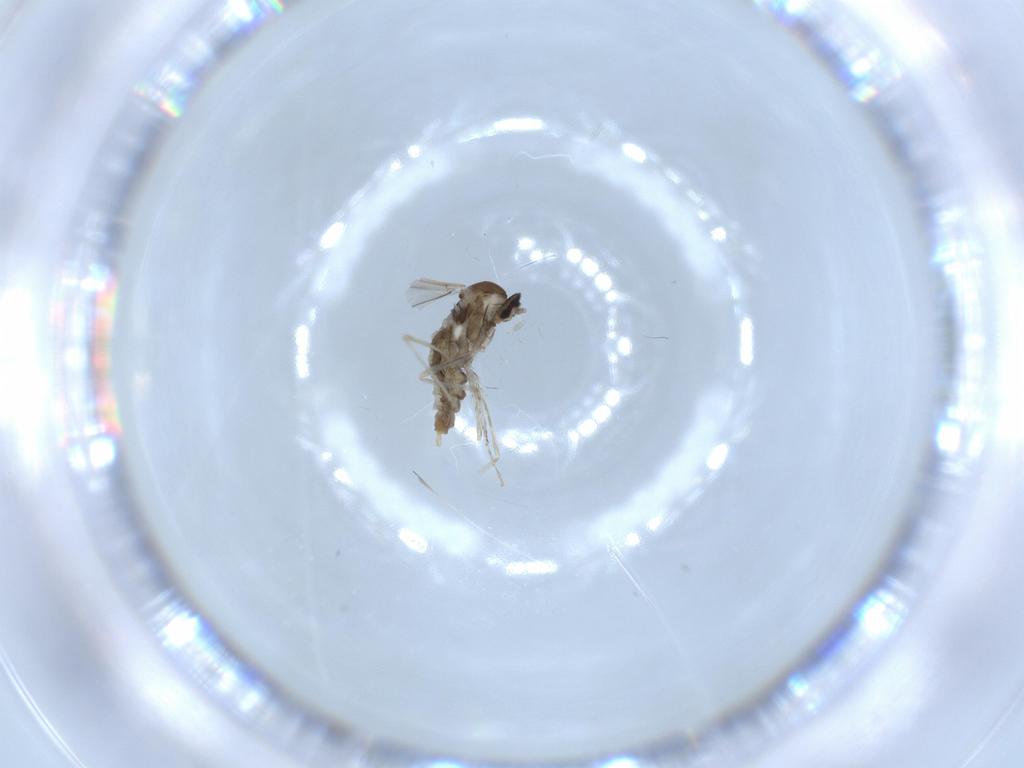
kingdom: Animalia
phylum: Arthropoda
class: Insecta
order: Diptera
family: Cecidomyiidae
